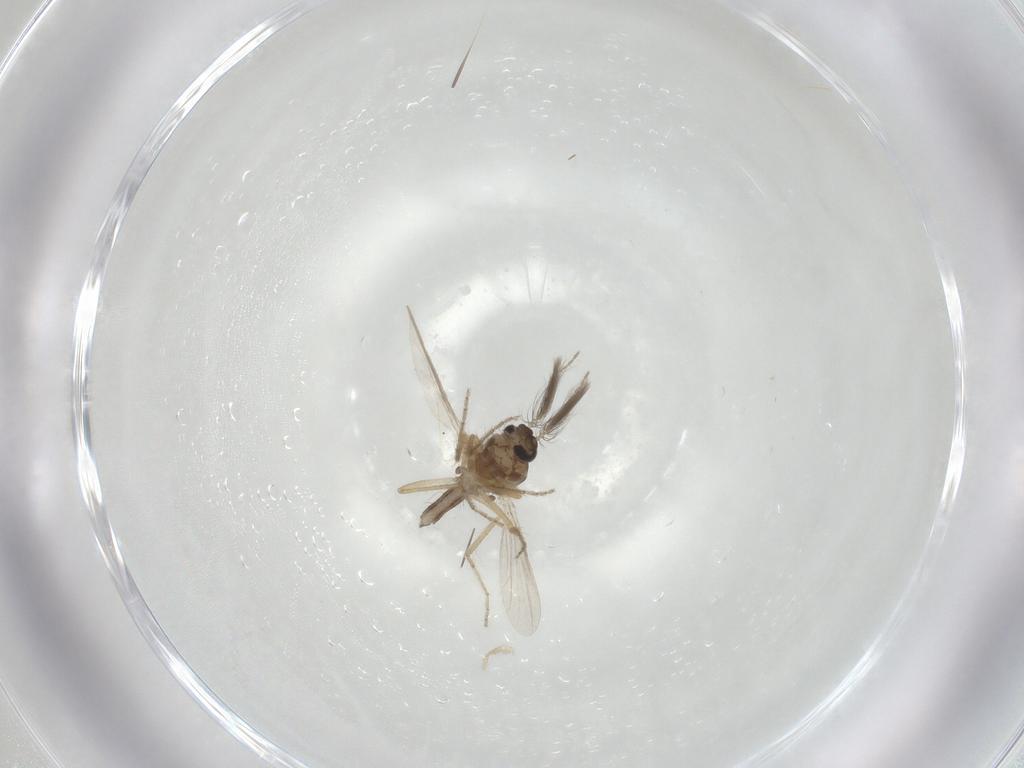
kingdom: Animalia
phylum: Arthropoda
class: Insecta
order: Diptera
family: Ceratopogonidae
